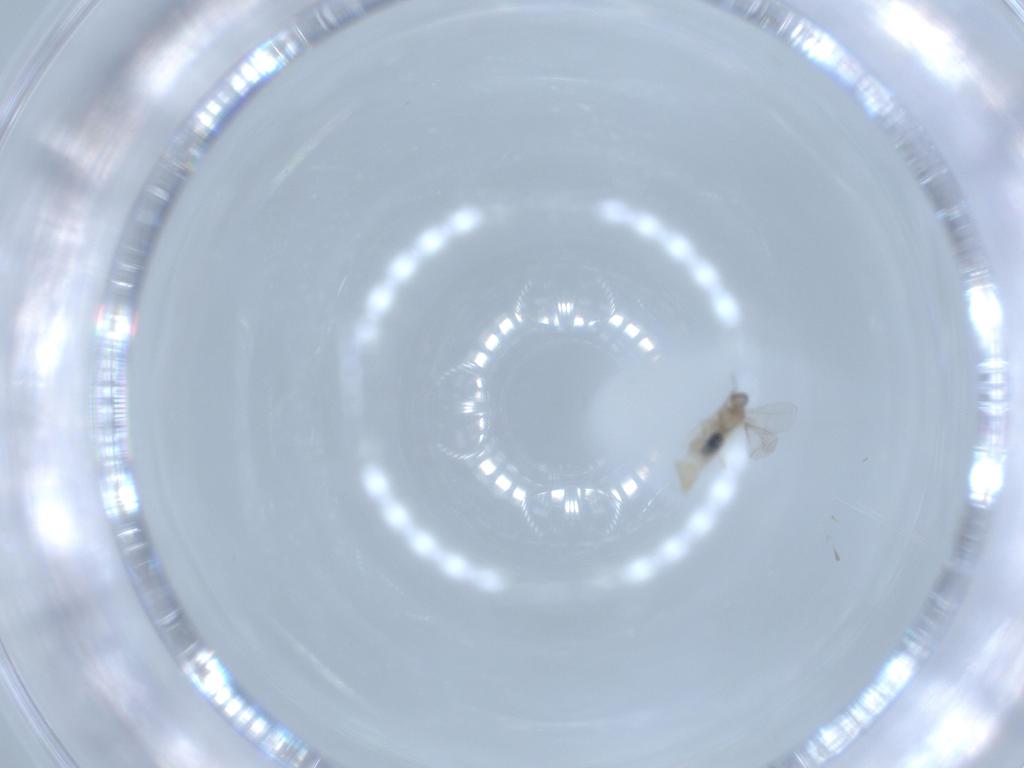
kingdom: Animalia
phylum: Arthropoda
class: Insecta
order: Diptera
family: Cecidomyiidae
